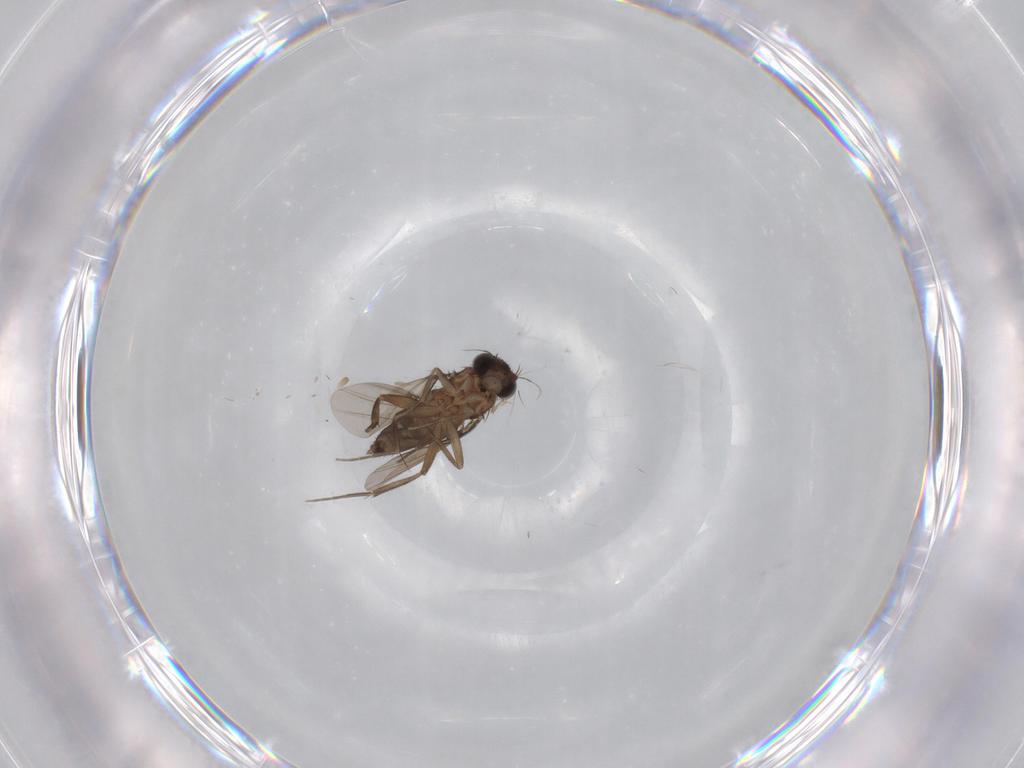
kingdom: Animalia
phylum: Arthropoda
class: Insecta
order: Diptera
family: Phoridae
